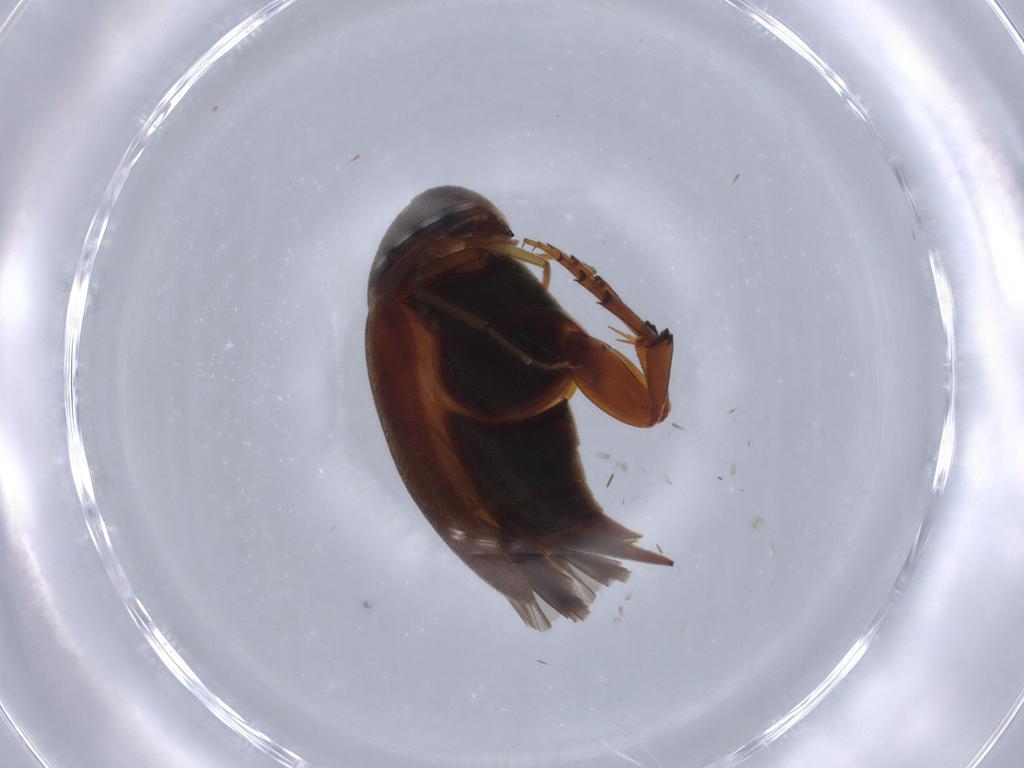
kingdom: Animalia
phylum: Arthropoda
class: Insecta
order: Coleoptera
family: Mordellidae
